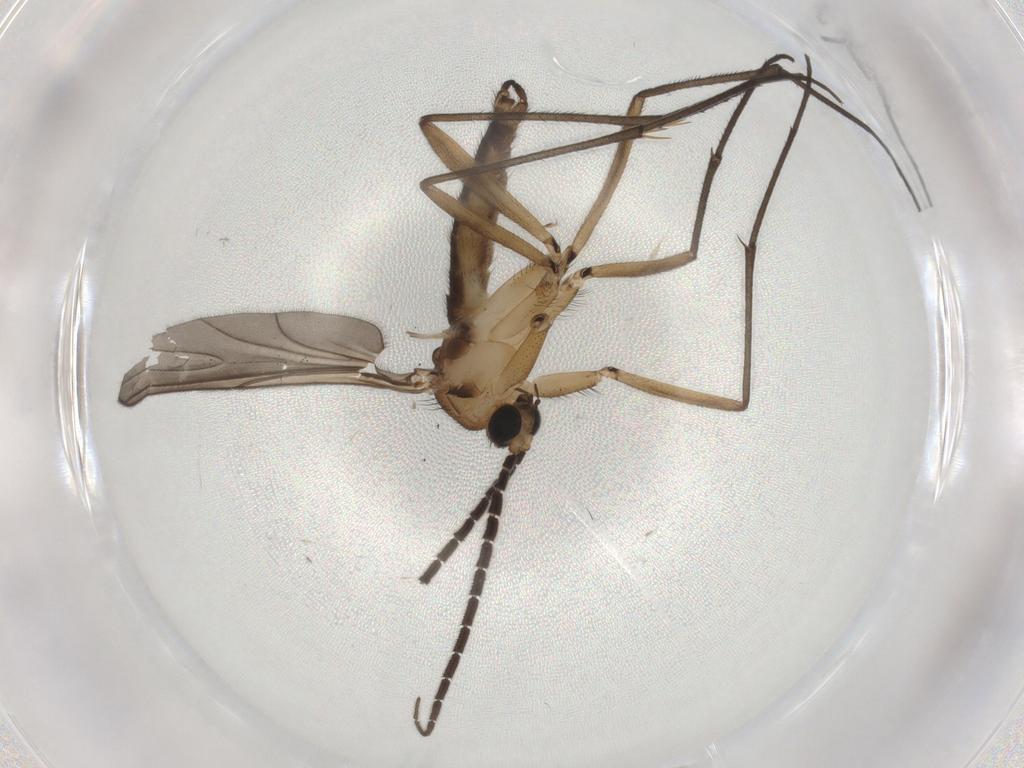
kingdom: Animalia
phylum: Arthropoda
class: Insecta
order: Diptera
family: Sciaridae
